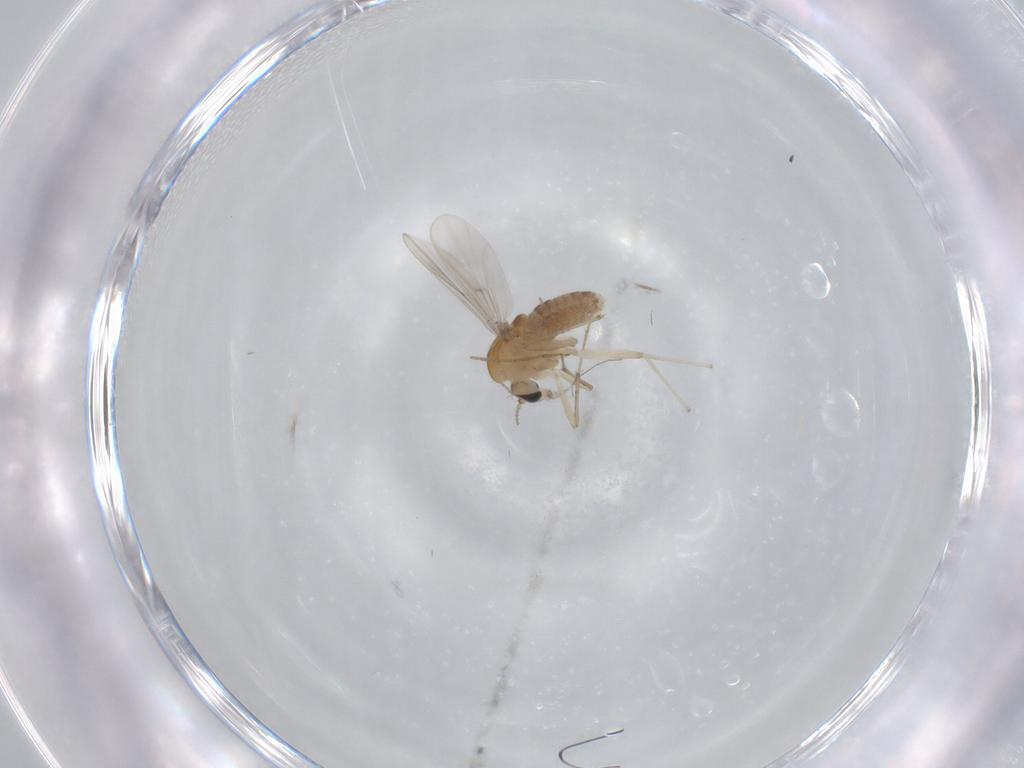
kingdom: Animalia
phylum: Arthropoda
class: Insecta
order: Diptera
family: Chironomidae
